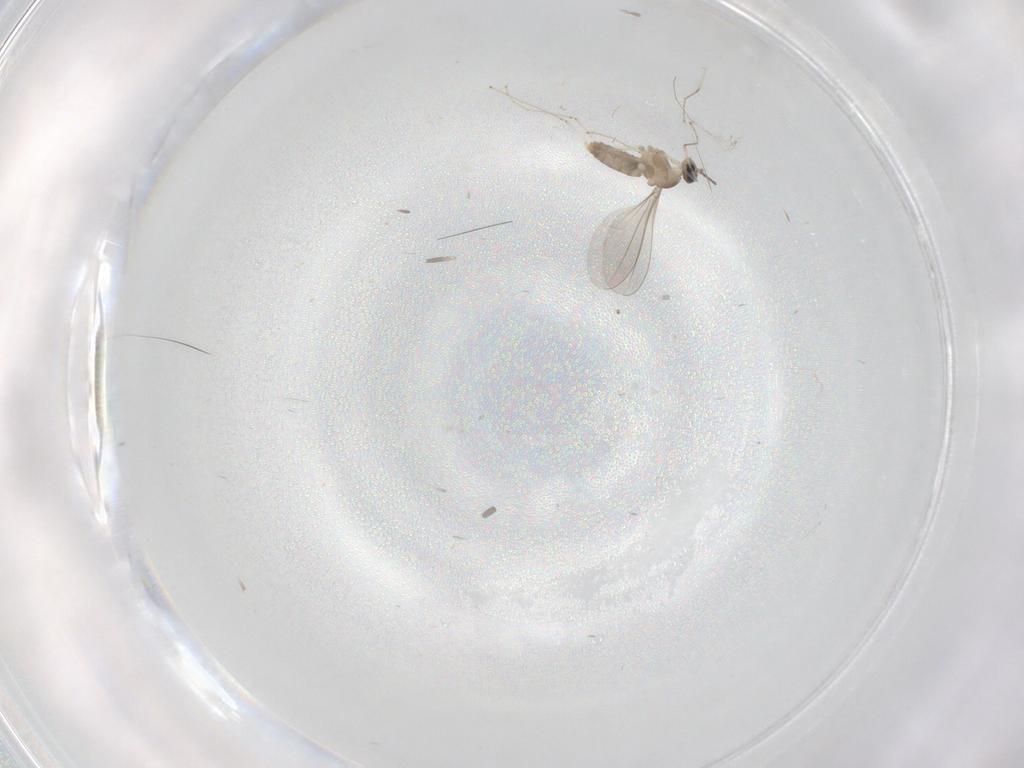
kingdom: Animalia
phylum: Arthropoda
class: Insecta
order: Diptera
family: Cecidomyiidae
